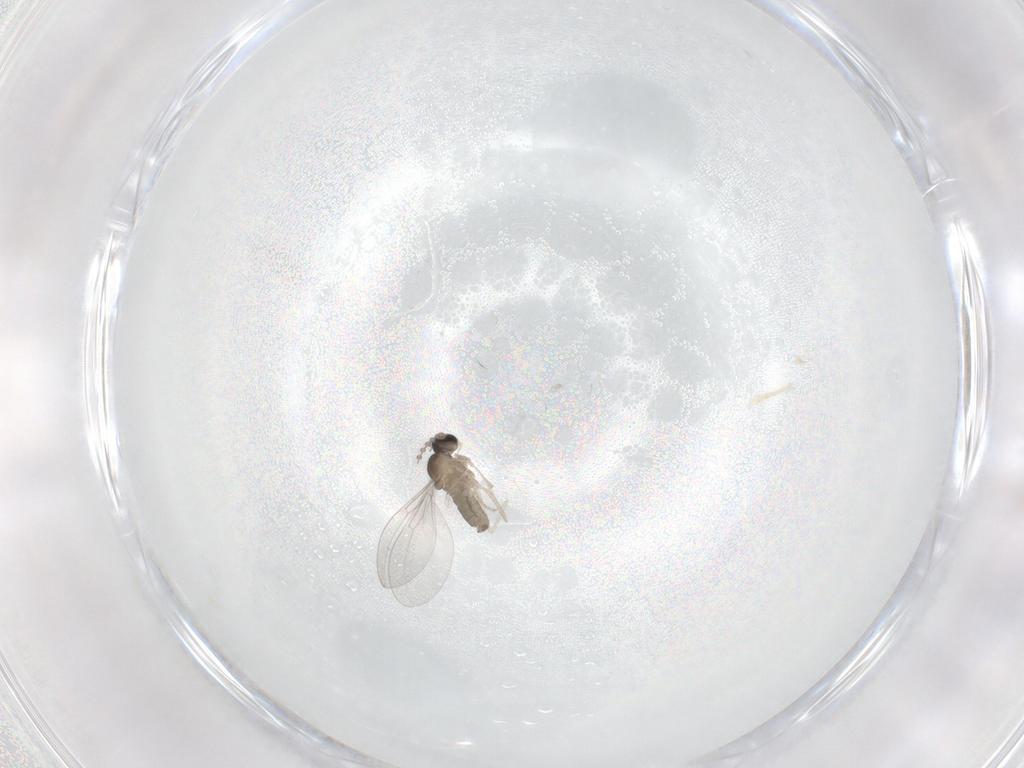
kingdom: Animalia
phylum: Arthropoda
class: Insecta
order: Diptera
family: Cecidomyiidae
